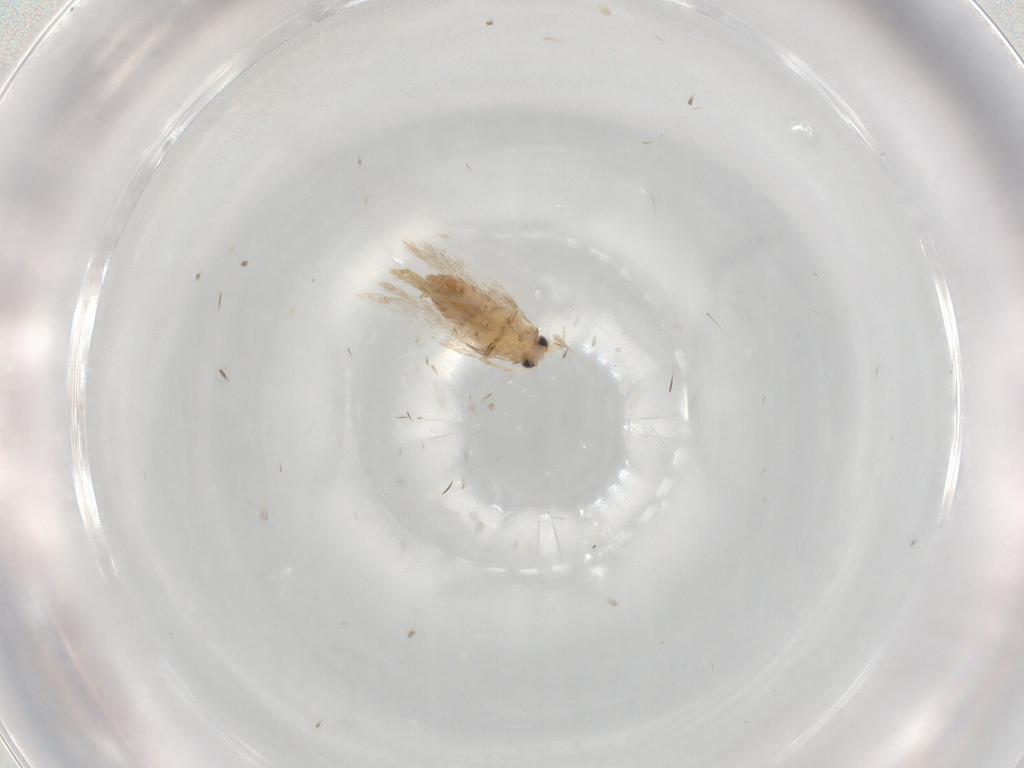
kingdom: Animalia
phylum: Arthropoda
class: Insecta
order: Lepidoptera
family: Nepticulidae
